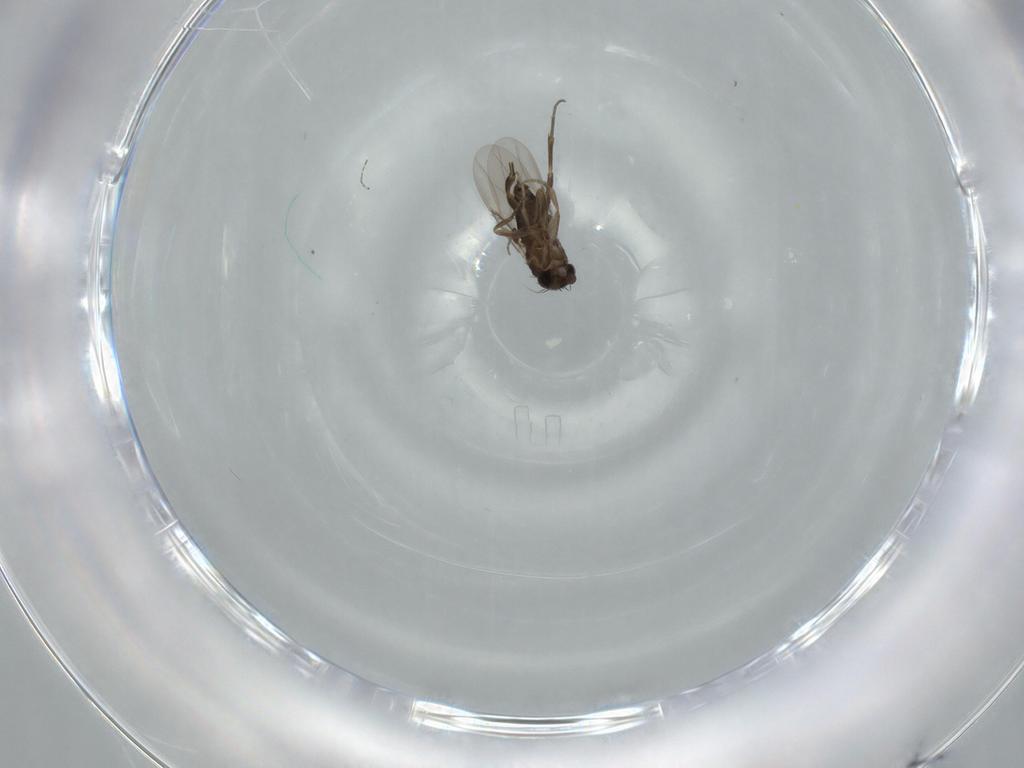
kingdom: Animalia
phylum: Arthropoda
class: Insecta
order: Diptera
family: Phoridae
